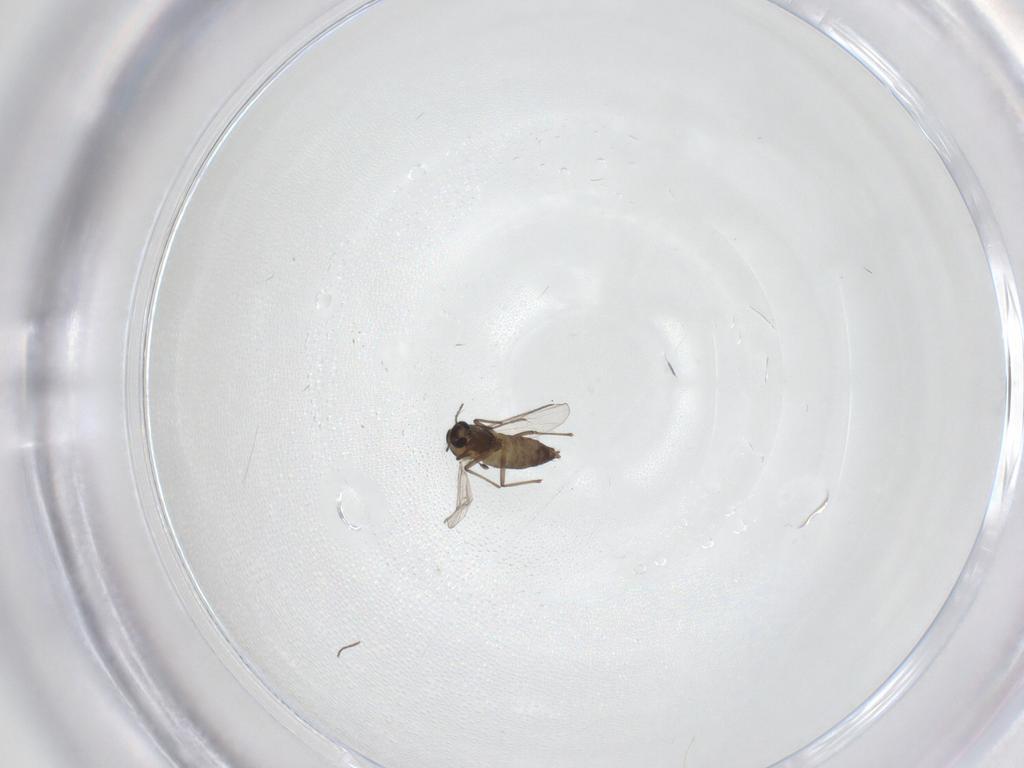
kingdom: Animalia
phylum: Arthropoda
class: Insecta
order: Diptera
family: Chironomidae
